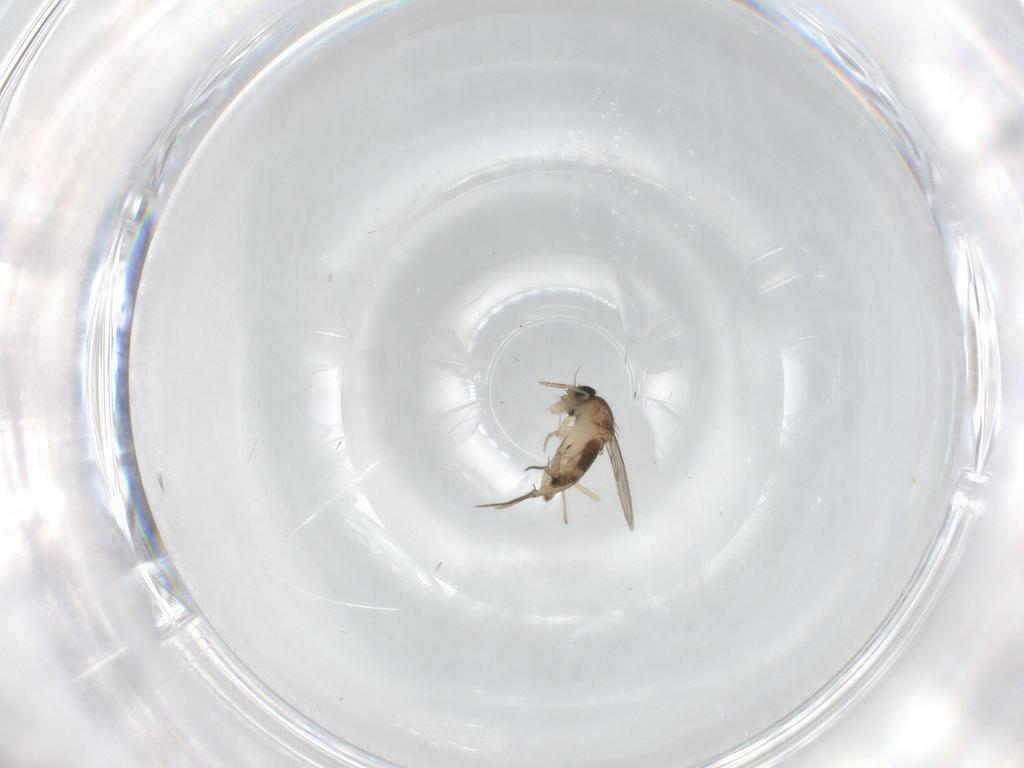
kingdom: Animalia
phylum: Arthropoda
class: Insecta
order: Diptera
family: Phoridae
